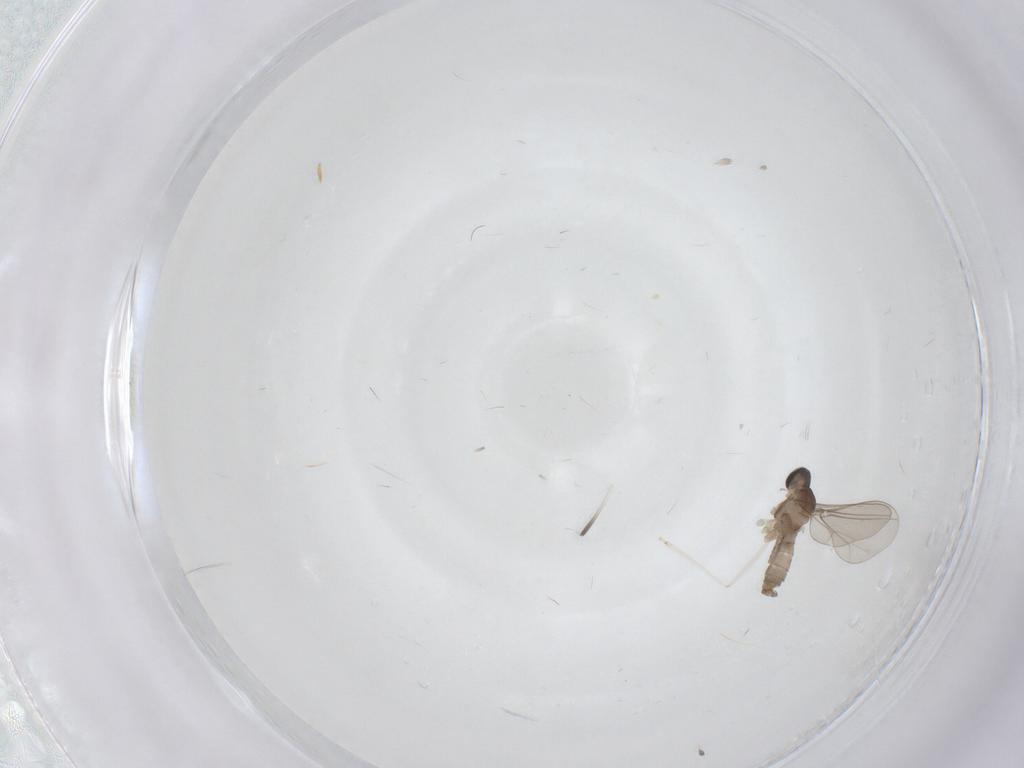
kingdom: Animalia
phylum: Arthropoda
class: Insecta
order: Diptera
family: Cecidomyiidae
